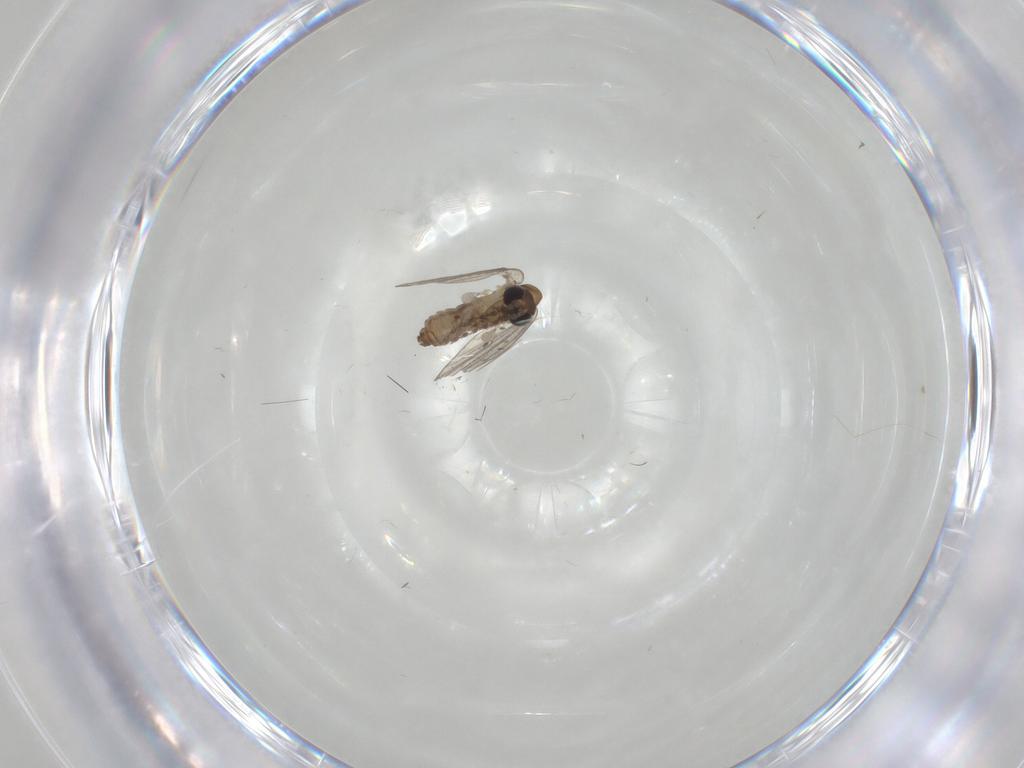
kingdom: Animalia
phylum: Arthropoda
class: Insecta
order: Diptera
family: Psychodidae
